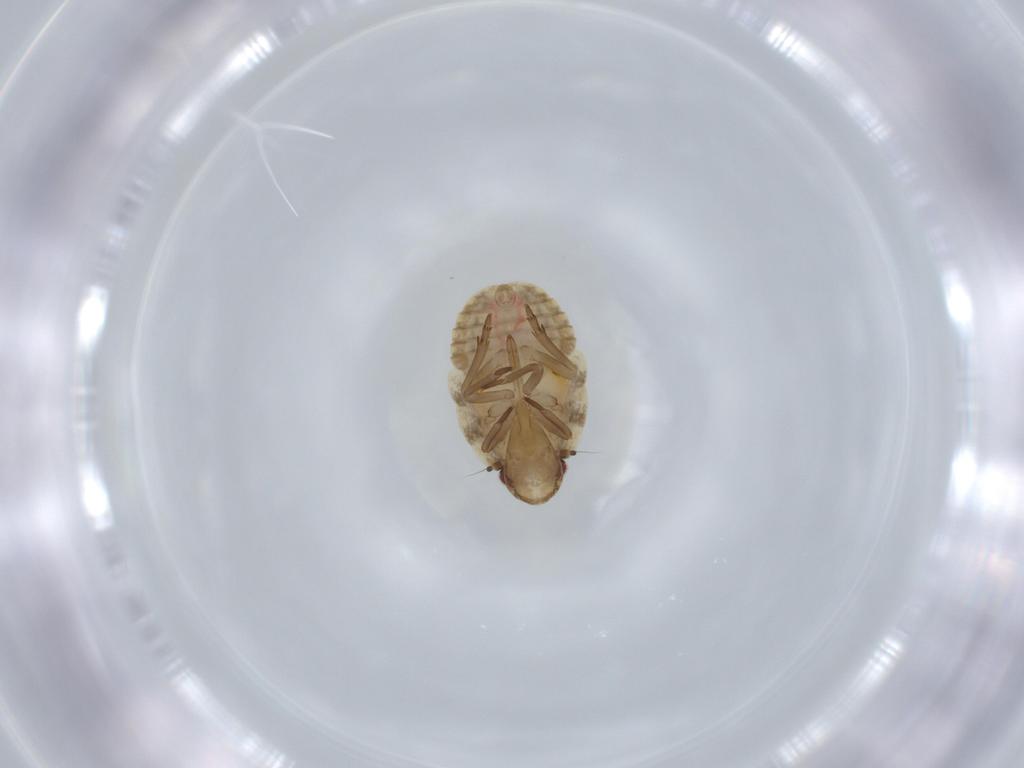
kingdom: Animalia
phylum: Arthropoda
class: Insecta
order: Hemiptera
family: Flatidae
